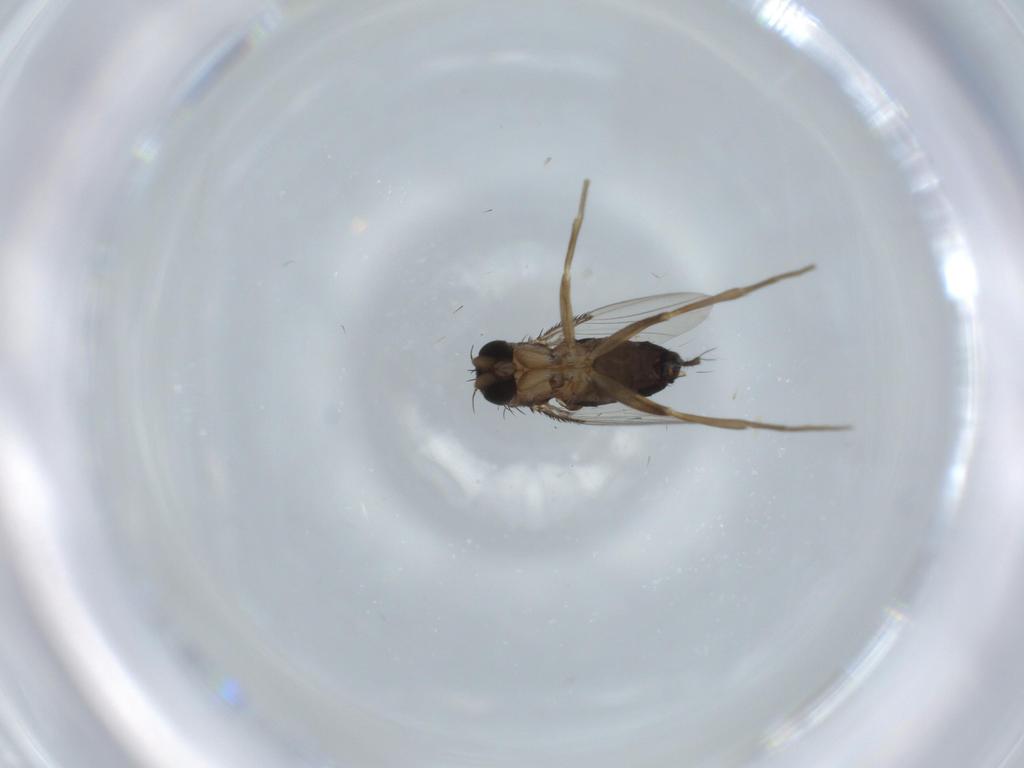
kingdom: Animalia
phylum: Arthropoda
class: Insecta
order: Diptera
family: Phoridae
